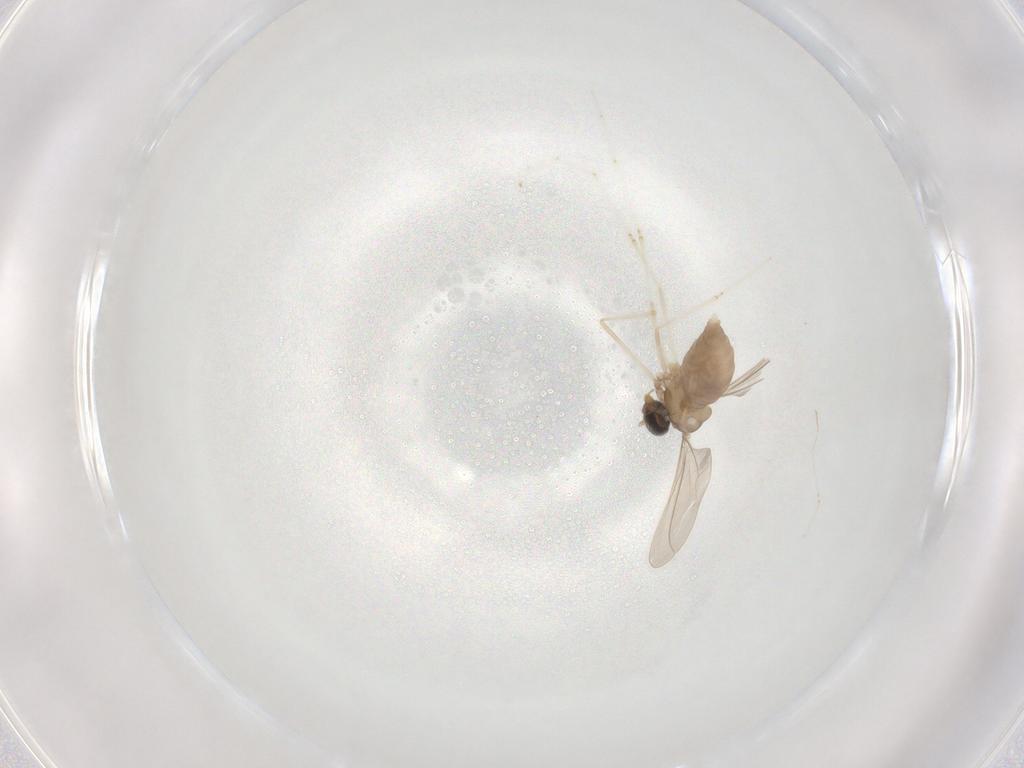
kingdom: Animalia
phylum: Arthropoda
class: Insecta
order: Diptera
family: Cecidomyiidae
